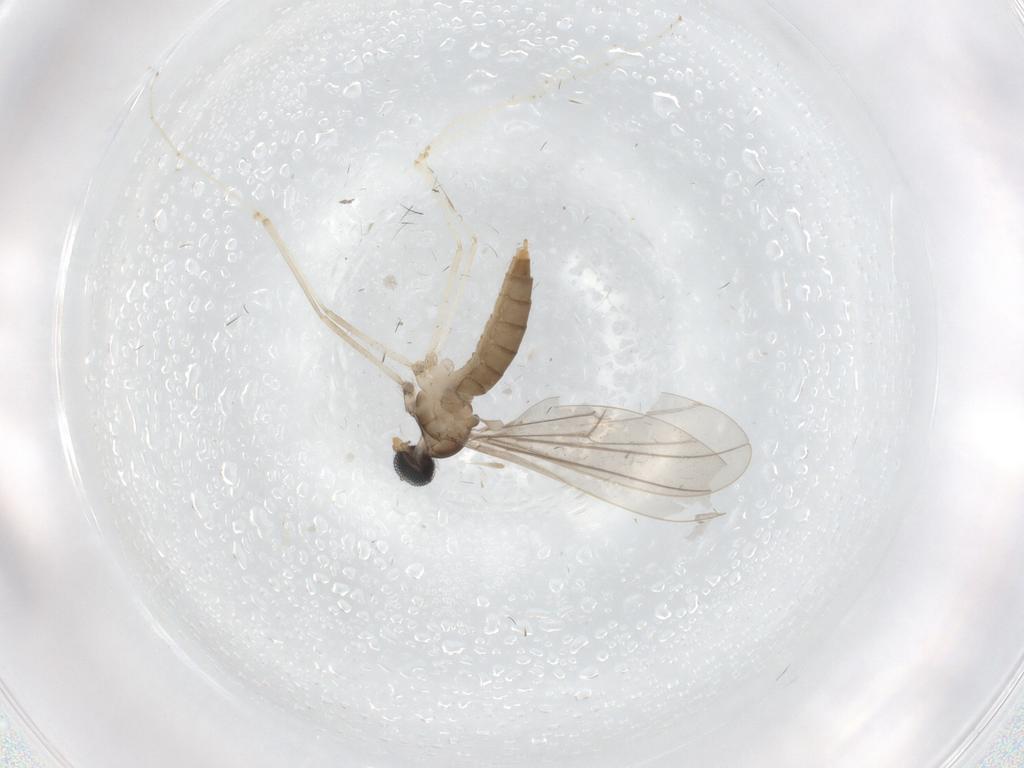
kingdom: Animalia
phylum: Arthropoda
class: Insecta
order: Diptera
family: Cecidomyiidae
